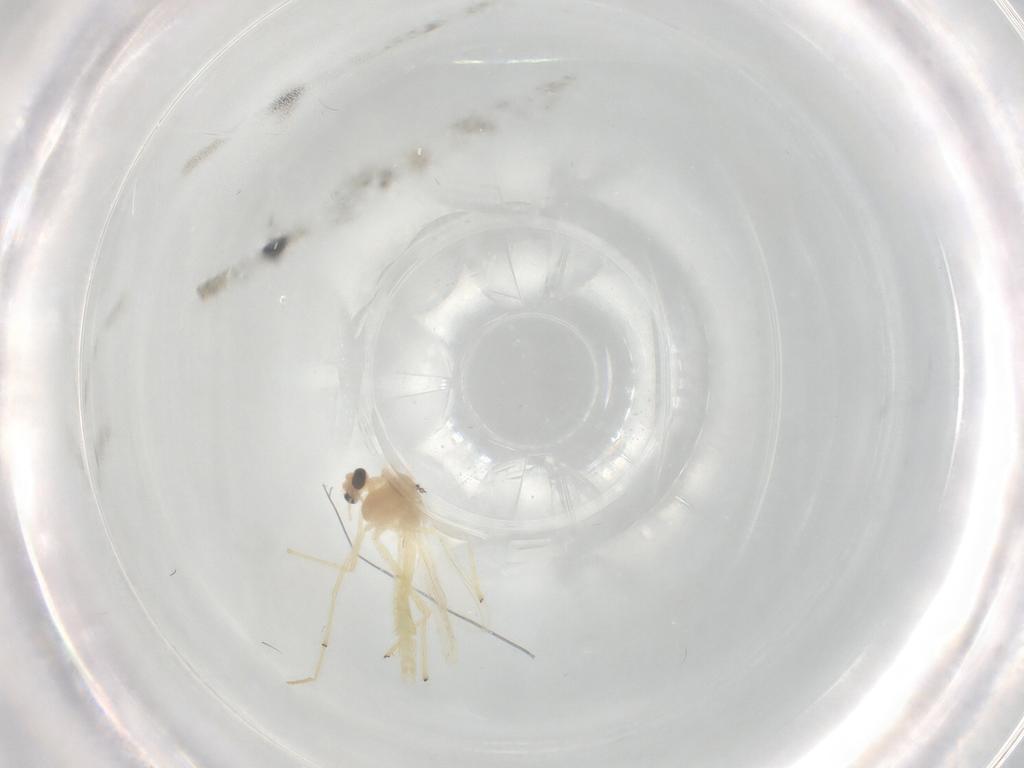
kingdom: Animalia
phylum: Arthropoda
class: Insecta
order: Diptera
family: Chironomidae
